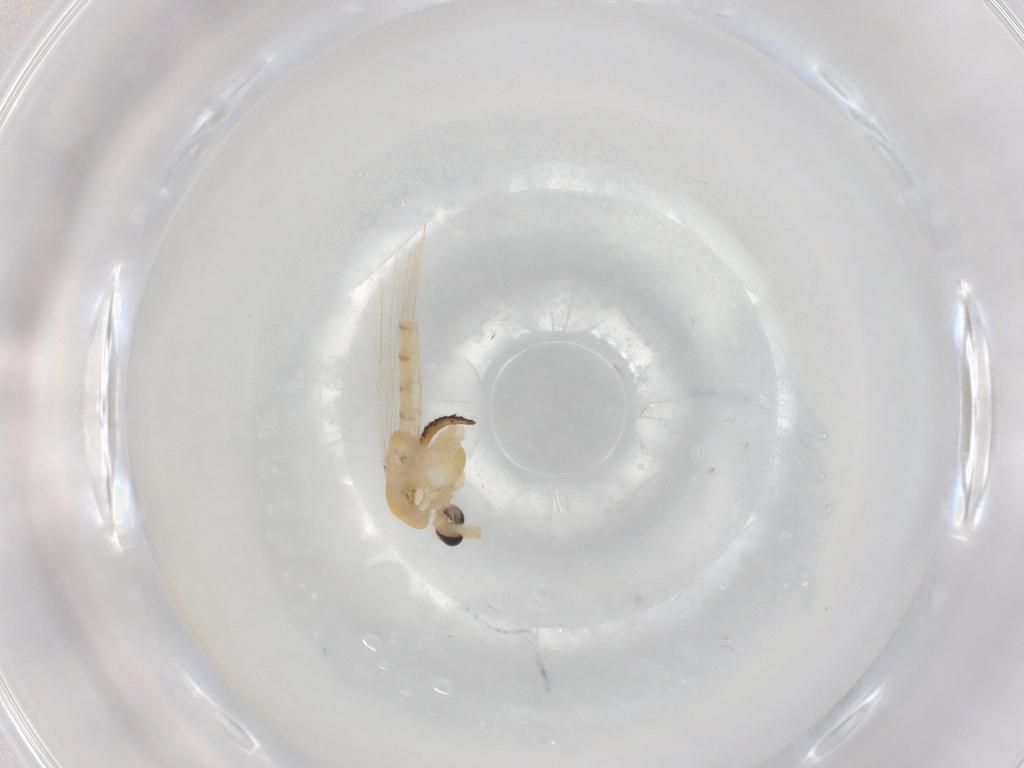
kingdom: Animalia
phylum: Arthropoda
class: Insecta
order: Diptera
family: Phoridae
